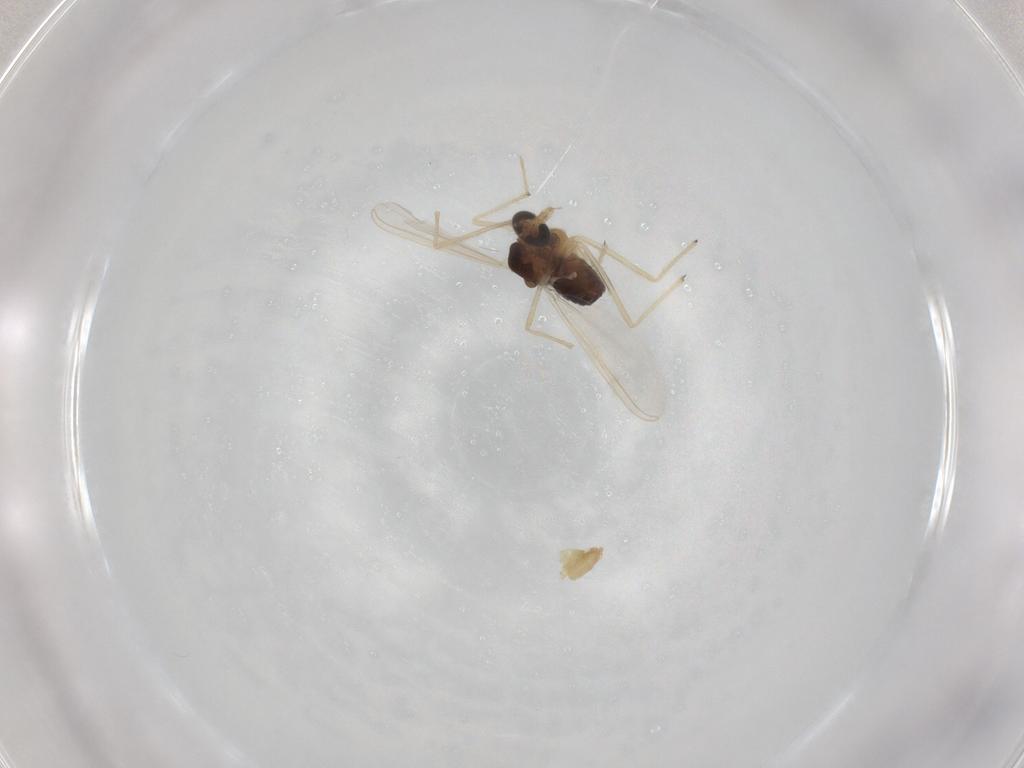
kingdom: Animalia
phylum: Arthropoda
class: Insecta
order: Diptera
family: Chironomidae
